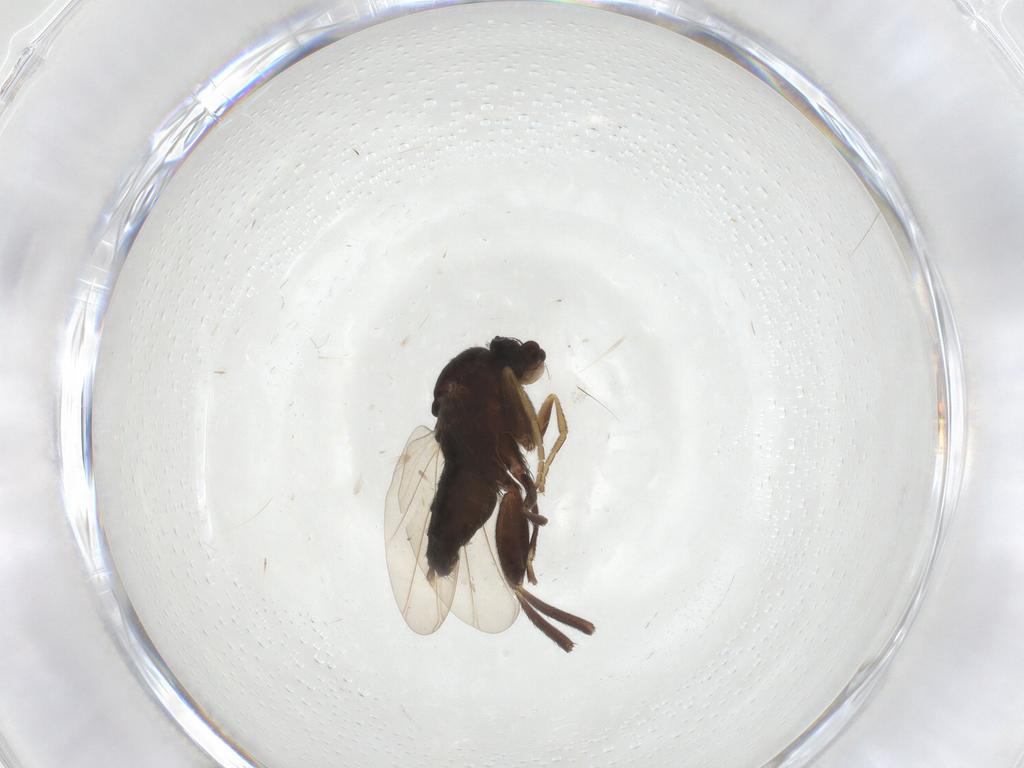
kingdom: Animalia
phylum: Arthropoda
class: Insecta
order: Diptera
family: Phoridae
